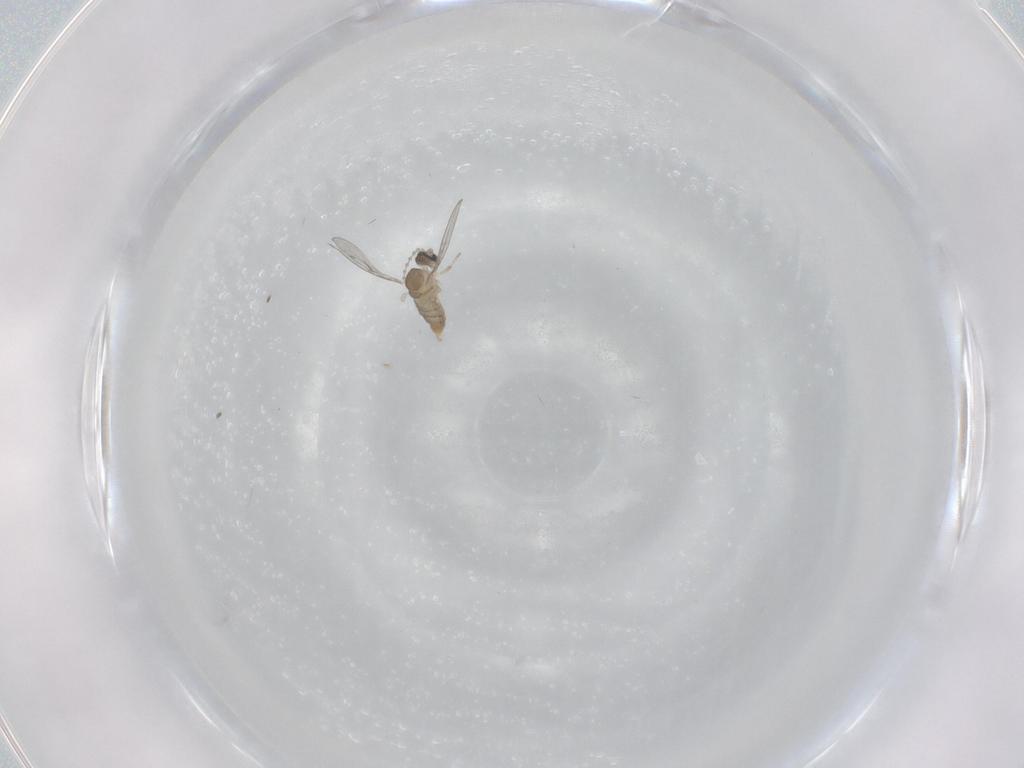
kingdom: Animalia
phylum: Arthropoda
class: Insecta
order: Diptera
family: Cecidomyiidae
